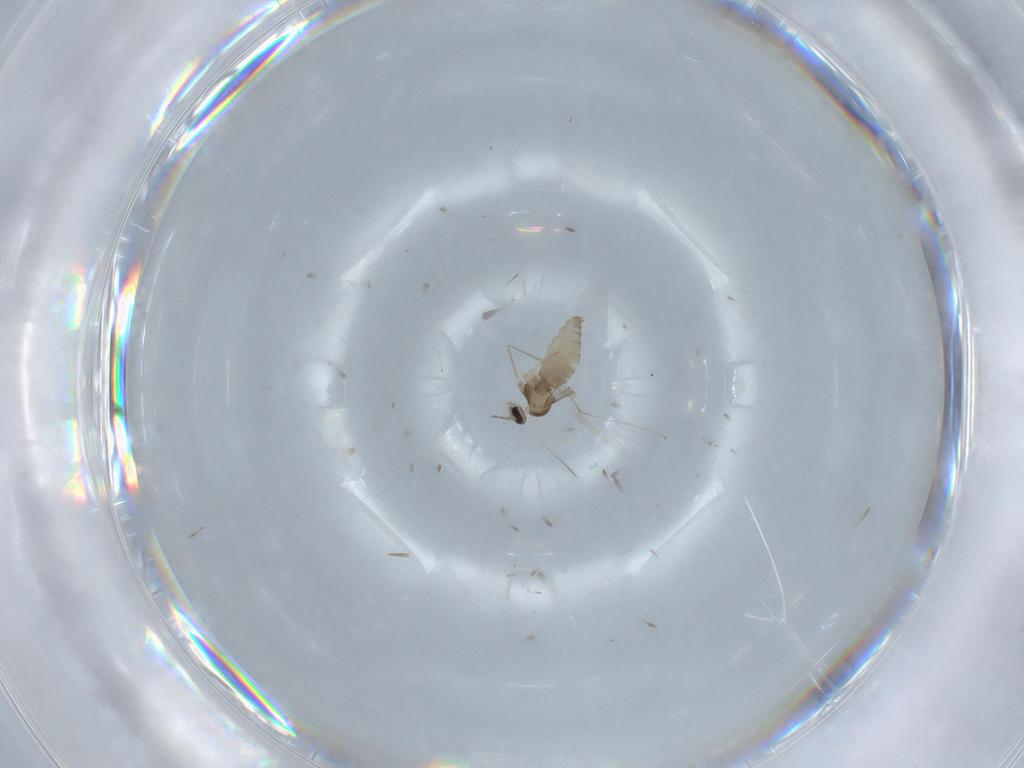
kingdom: Animalia
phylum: Arthropoda
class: Insecta
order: Diptera
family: Cecidomyiidae
